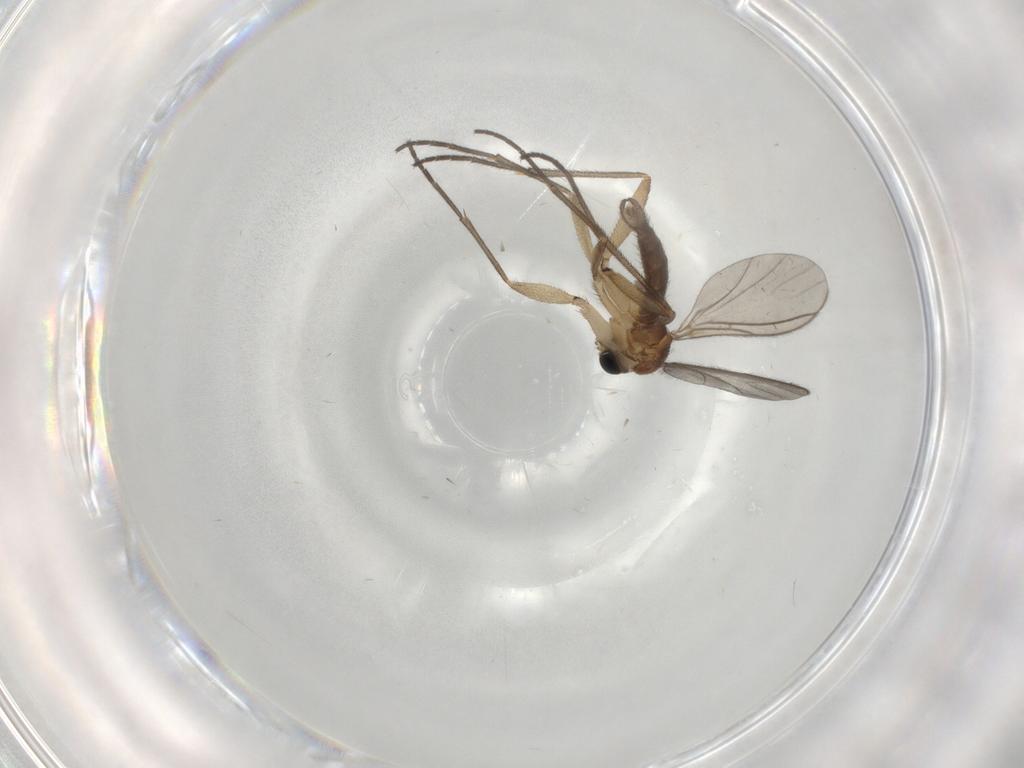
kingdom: Animalia
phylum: Arthropoda
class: Insecta
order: Diptera
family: Sciaridae
